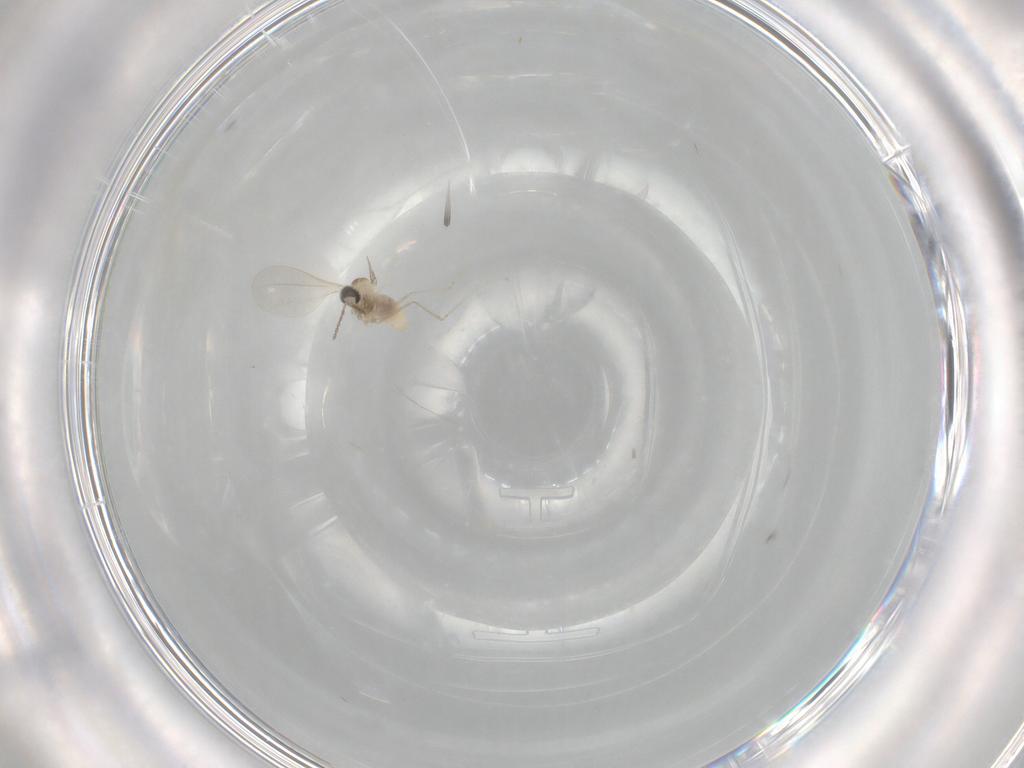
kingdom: Animalia
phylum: Arthropoda
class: Insecta
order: Diptera
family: Cecidomyiidae
